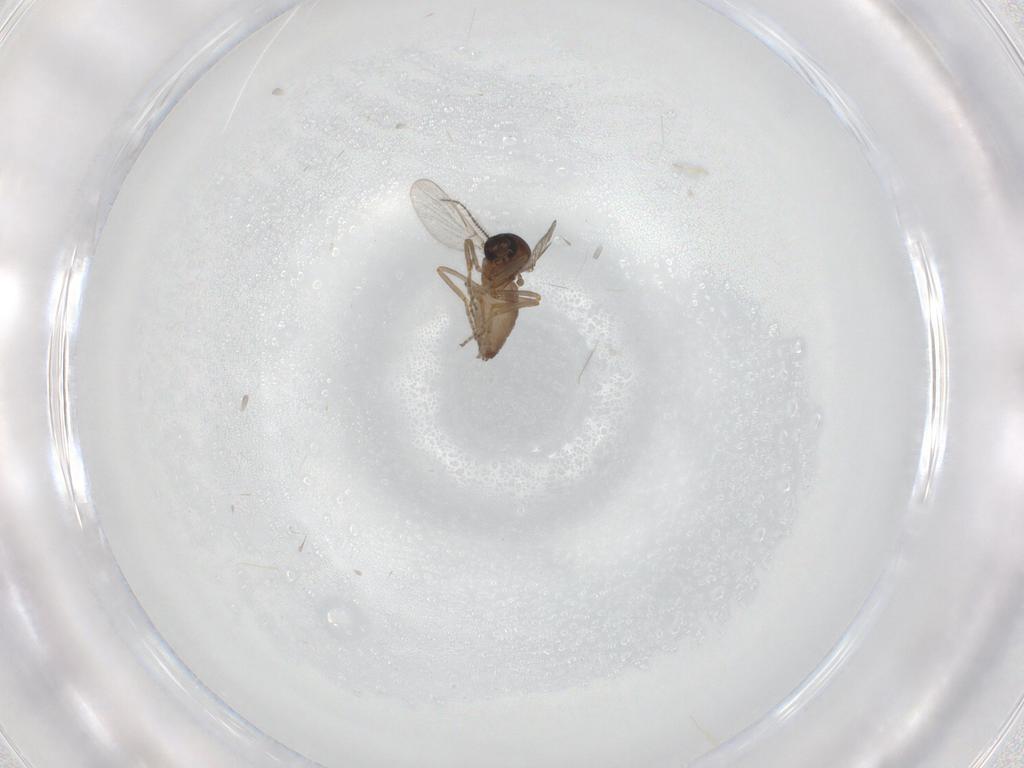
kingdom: Animalia
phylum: Arthropoda
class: Insecta
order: Diptera
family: Ceratopogonidae
